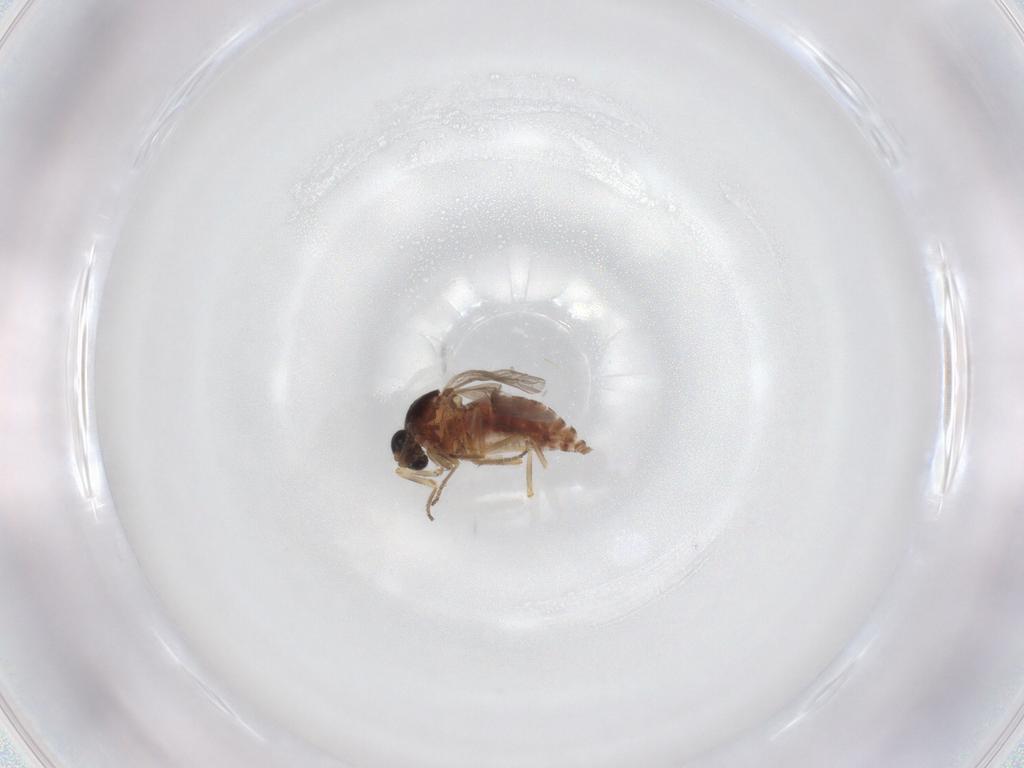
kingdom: Animalia
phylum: Arthropoda
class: Insecta
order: Diptera
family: Ceratopogonidae
